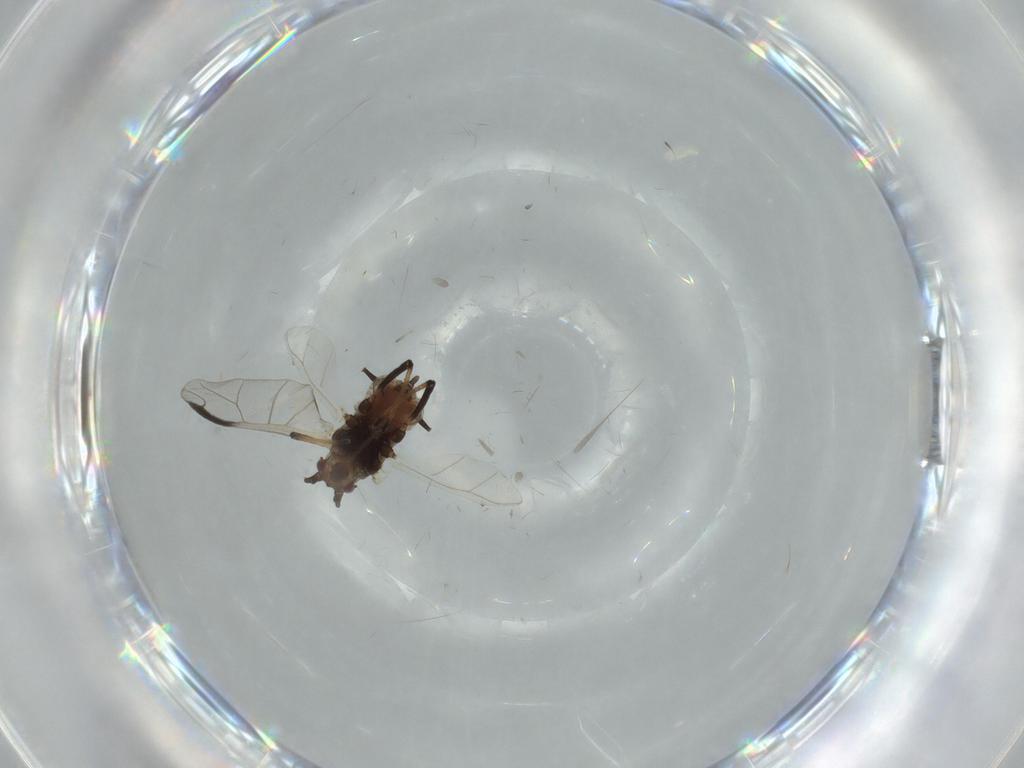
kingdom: Animalia
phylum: Arthropoda
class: Insecta
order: Hemiptera
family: Aphididae
